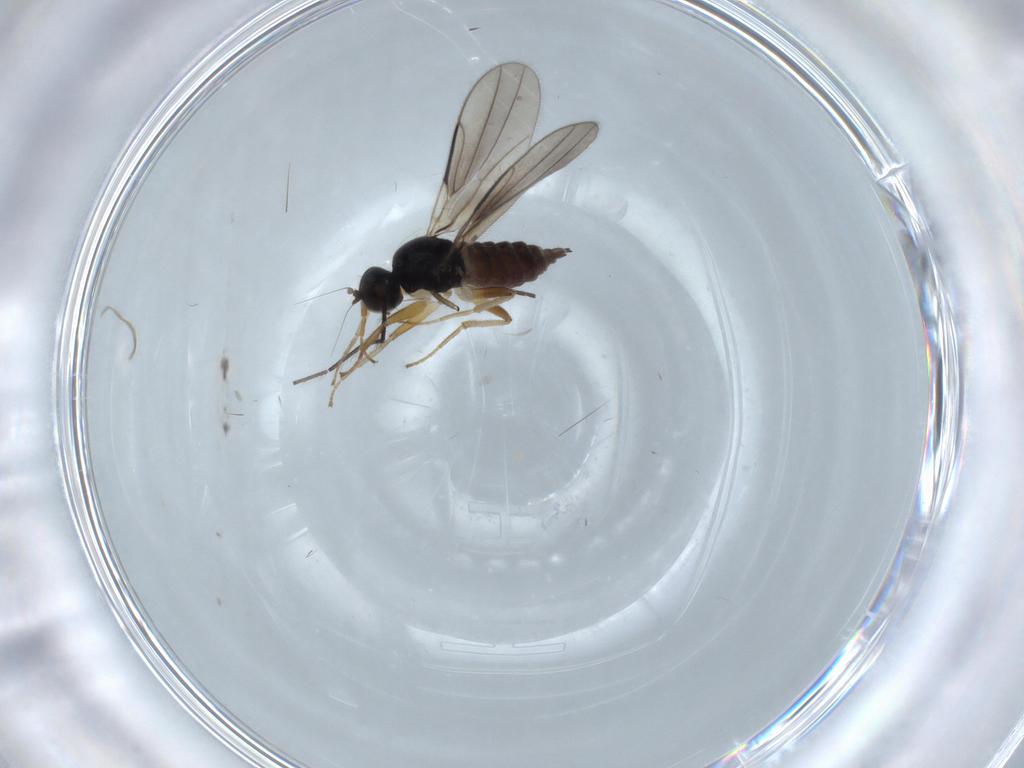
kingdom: Animalia
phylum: Arthropoda
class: Insecta
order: Diptera
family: Hybotidae
